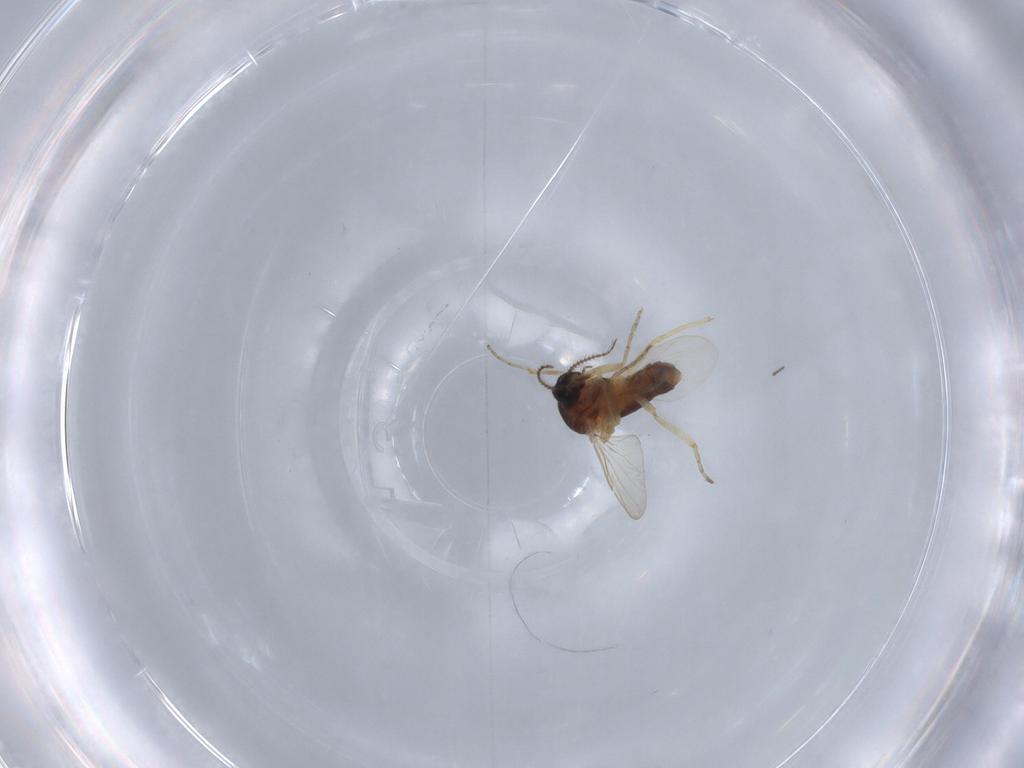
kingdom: Animalia
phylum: Arthropoda
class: Insecta
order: Diptera
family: Ceratopogonidae
